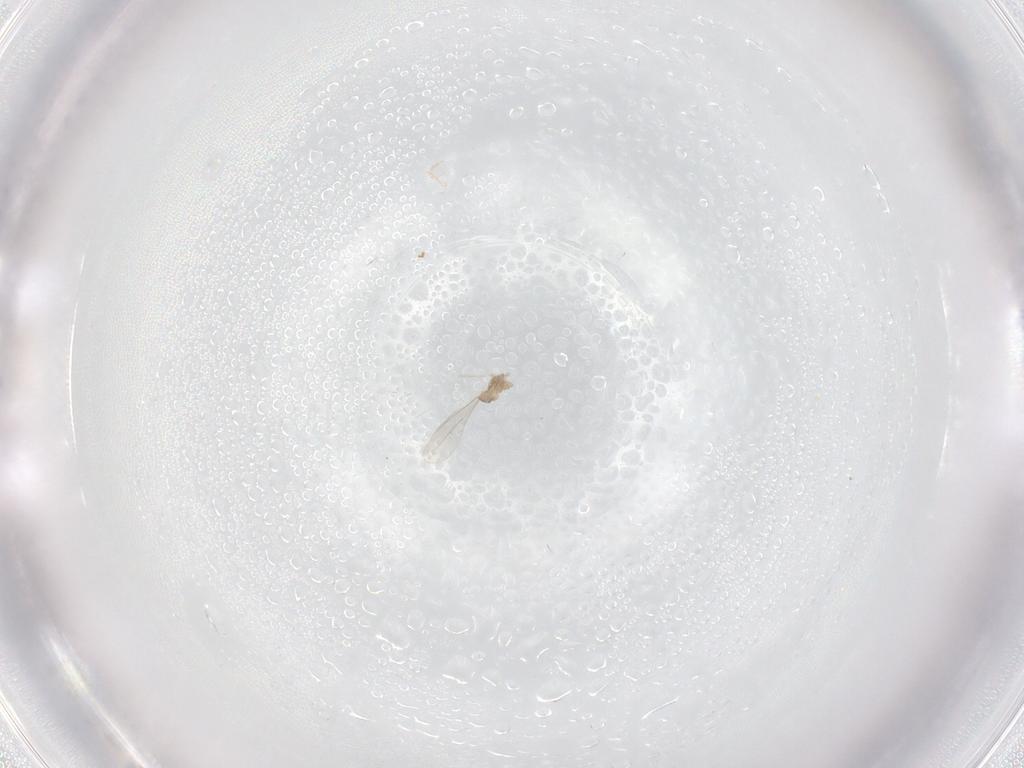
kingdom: Animalia
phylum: Arthropoda
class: Insecta
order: Diptera
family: Cecidomyiidae
